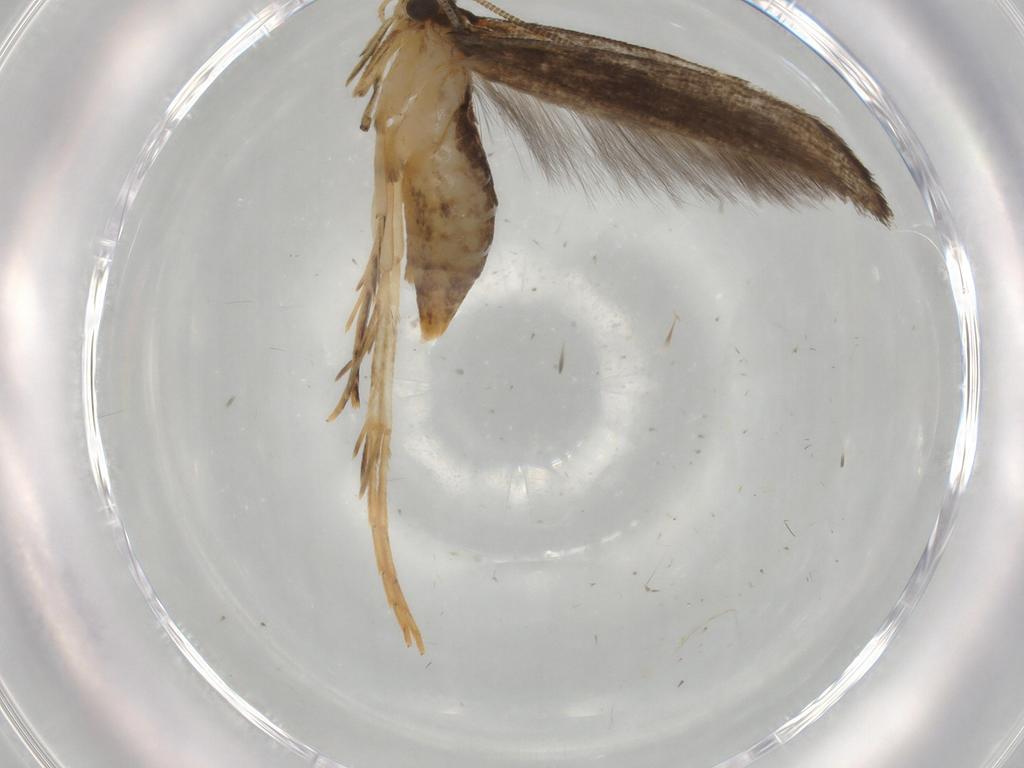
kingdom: Animalia
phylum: Arthropoda
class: Insecta
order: Lepidoptera
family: Tineidae
